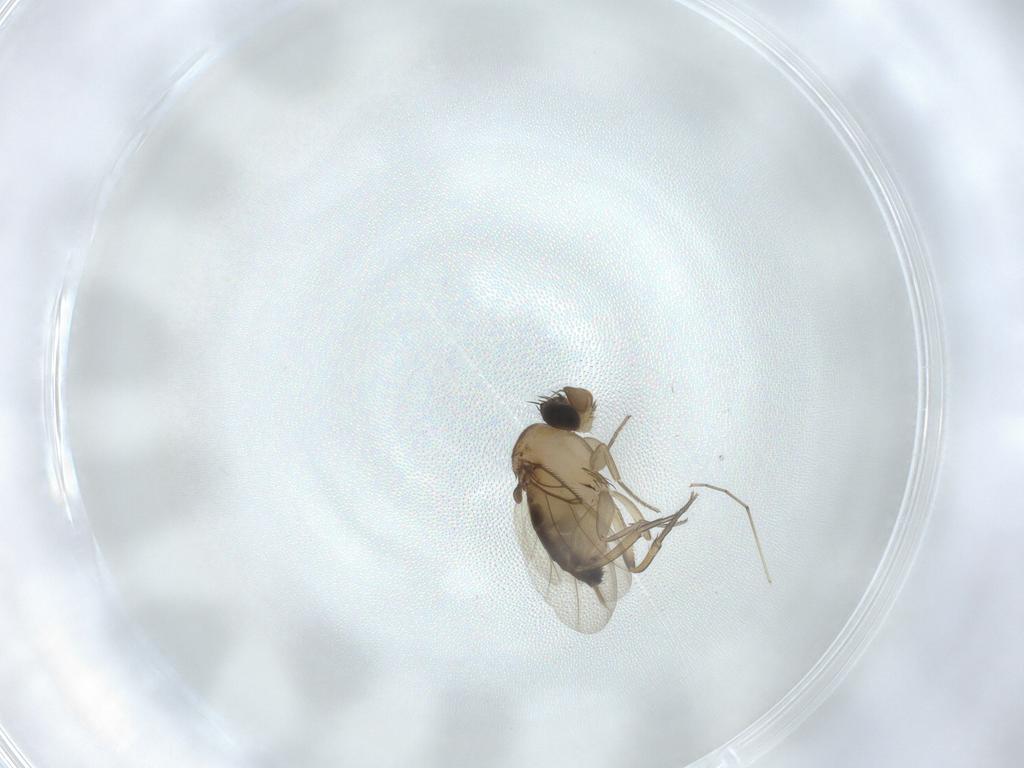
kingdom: Animalia
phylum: Arthropoda
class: Insecta
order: Diptera
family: Phoridae
